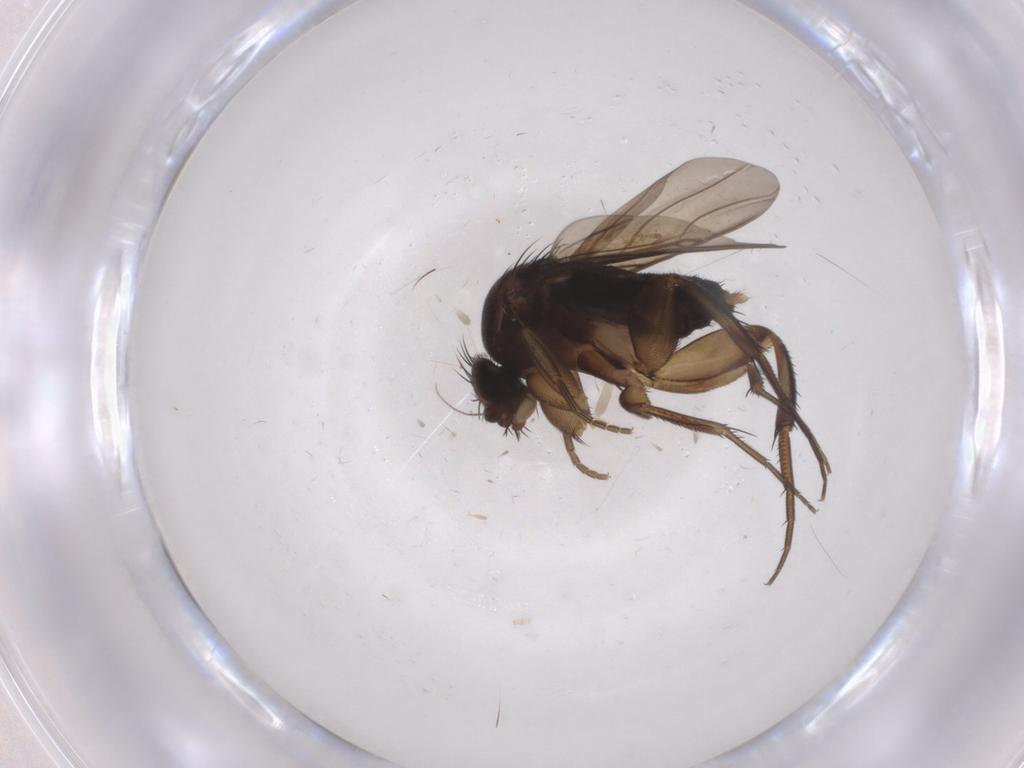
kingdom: Animalia
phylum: Arthropoda
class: Insecta
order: Diptera
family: Phoridae
